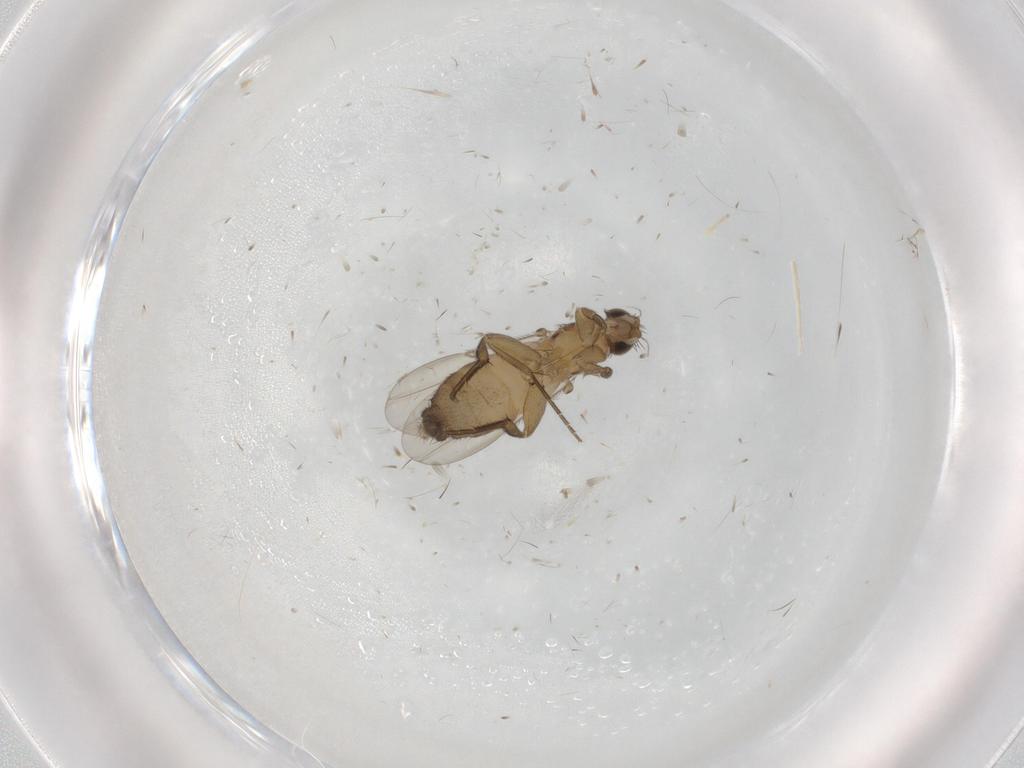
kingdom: Animalia
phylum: Arthropoda
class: Insecta
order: Diptera
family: Phoridae
